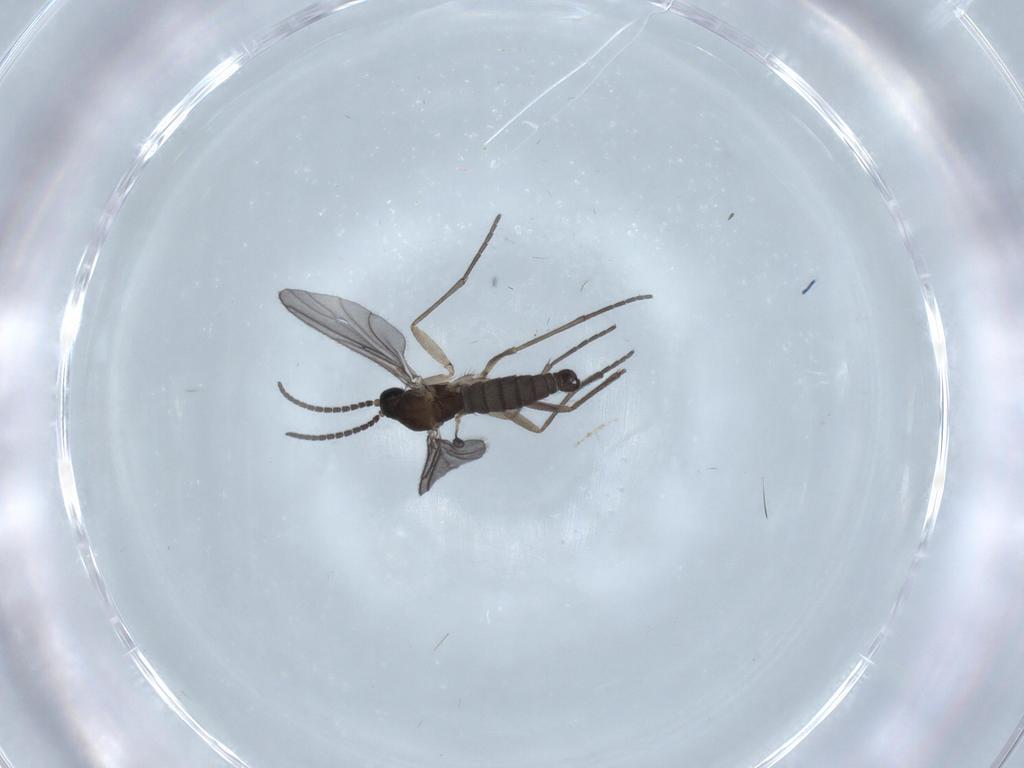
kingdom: Animalia
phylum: Arthropoda
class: Insecta
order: Diptera
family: Sciaridae
